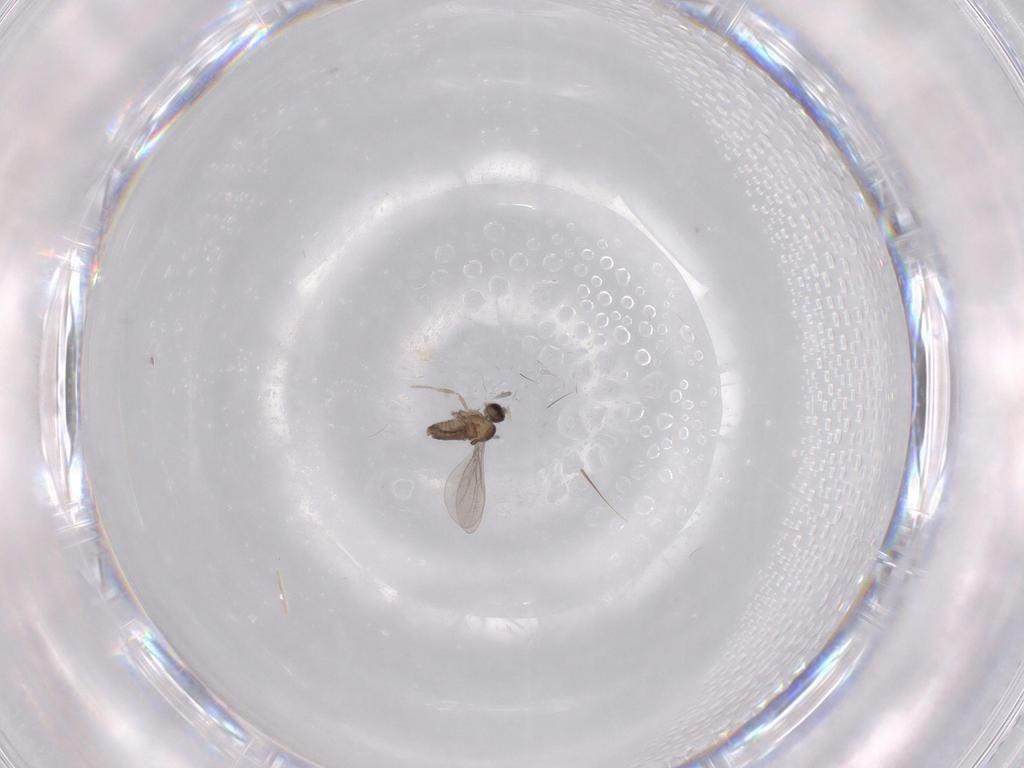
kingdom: Animalia
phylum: Arthropoda
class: Insecta
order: Diptera
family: Cecidomyiidae
